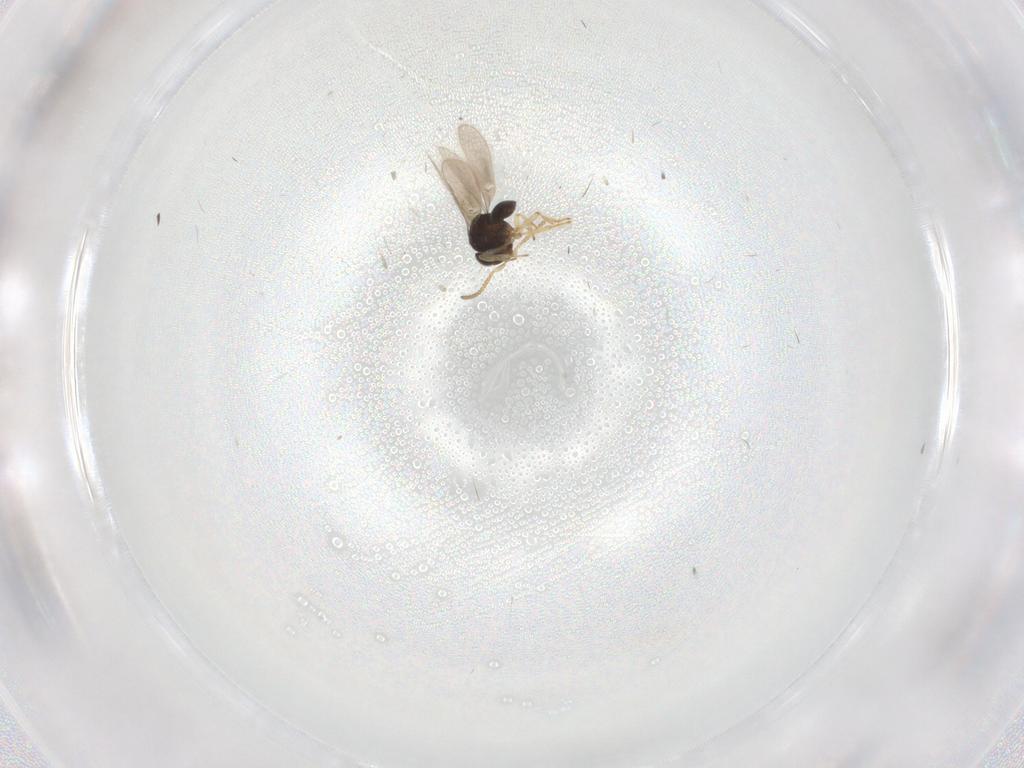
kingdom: Animalia
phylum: Arthropoda
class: Insecta
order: Hymenoptera
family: Scelionidae
